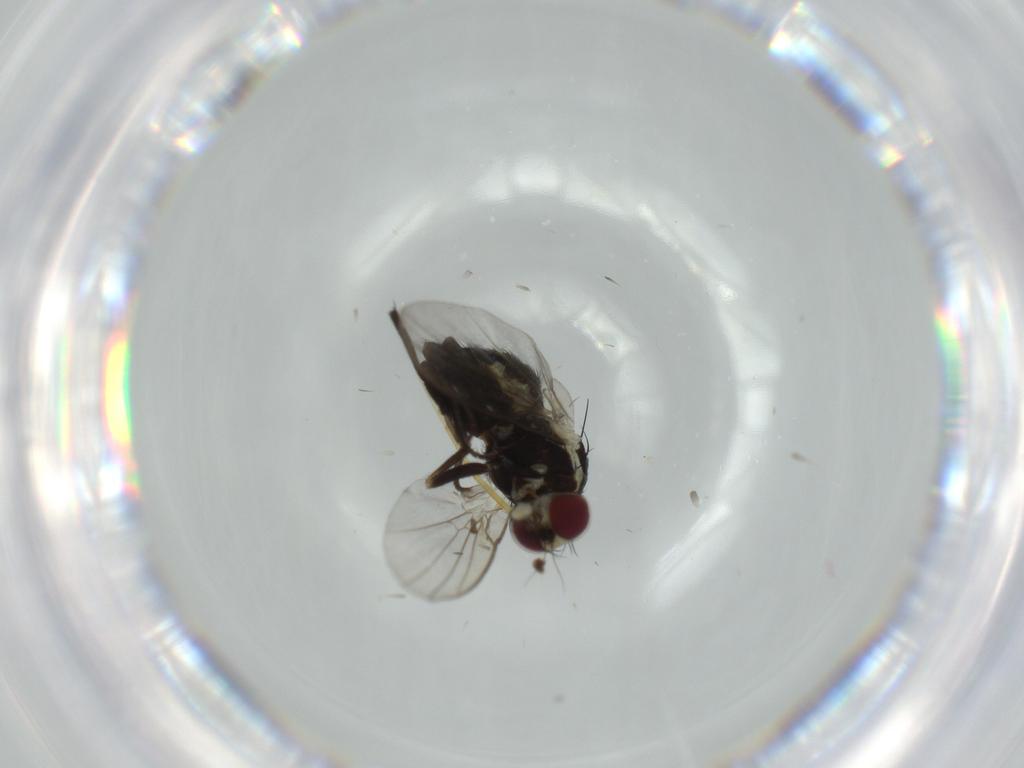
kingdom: Animalia
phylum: Arthropoda
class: Insecta
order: Diptera
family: Agromyzidae
